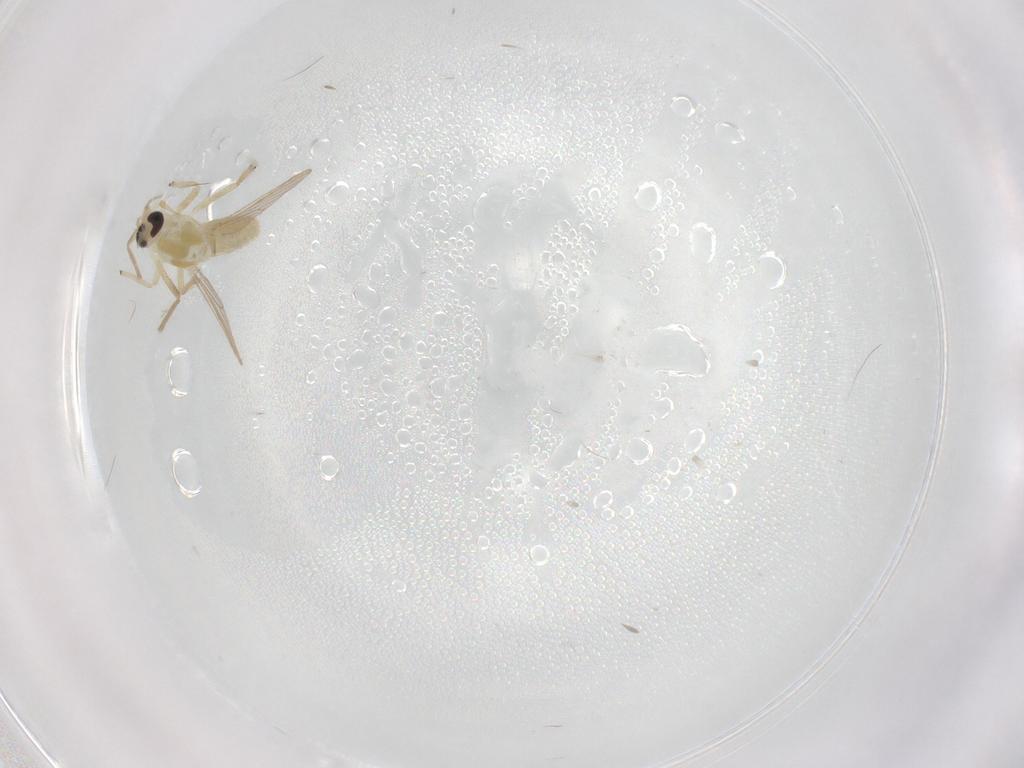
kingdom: Animalia
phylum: Arthropoda
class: Insecta
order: Diptera
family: Chironomidae
